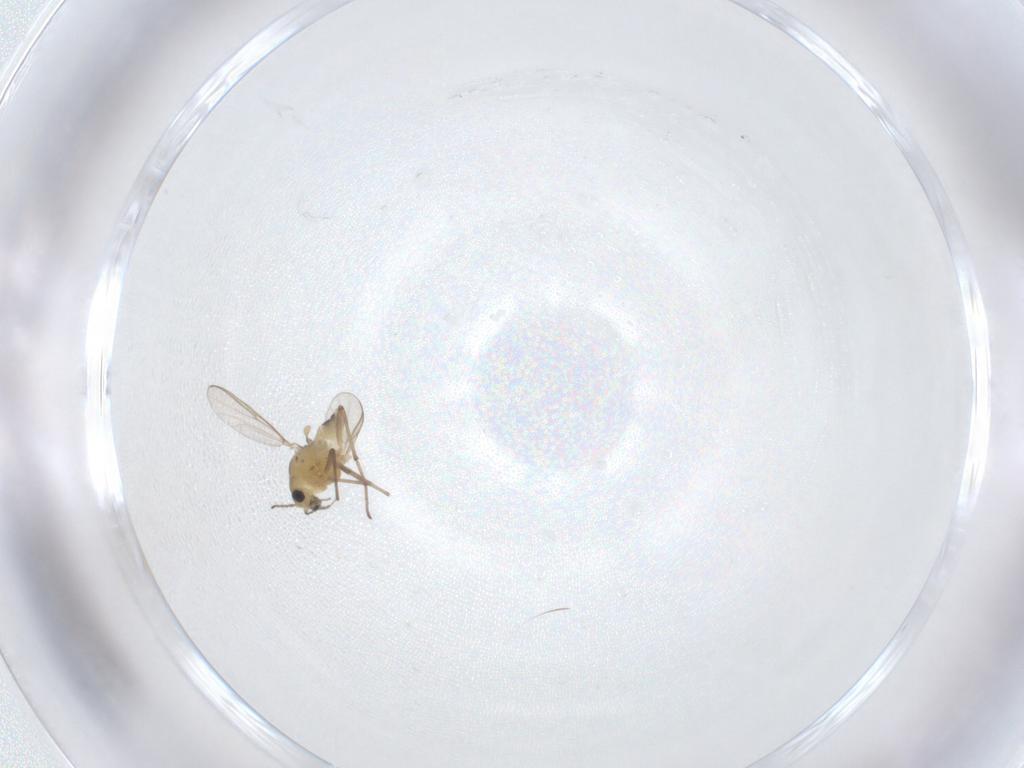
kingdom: Animalia
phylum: Arthropoda
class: Insecta
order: Diptera
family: Chironomidae
